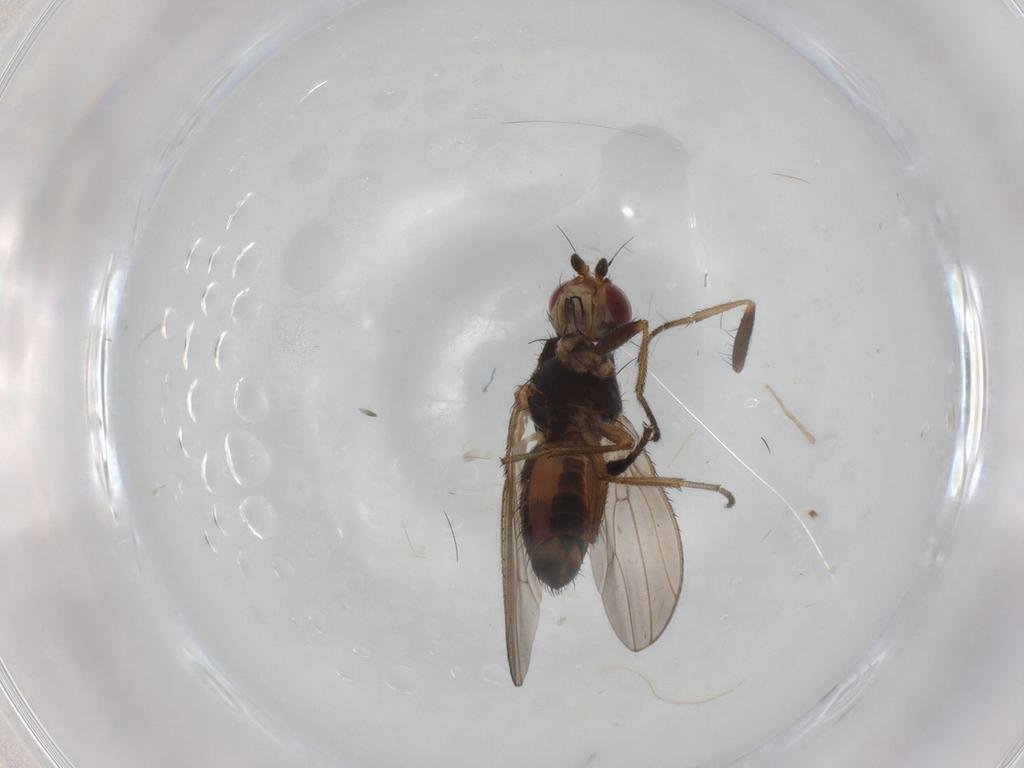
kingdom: Animalia
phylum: Arthropoda
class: Insecta
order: Diptera
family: Heleomyzidae
